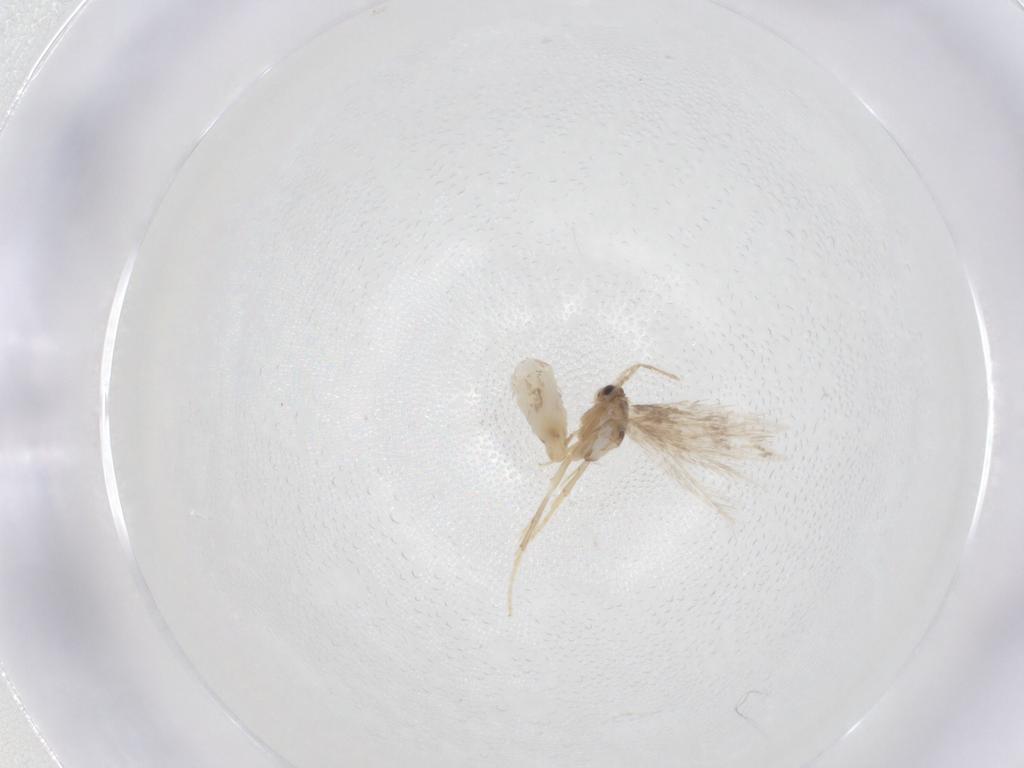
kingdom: Animalia
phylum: Arthropoda
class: Insecta
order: Lepidoptera
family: Nepticulidae
